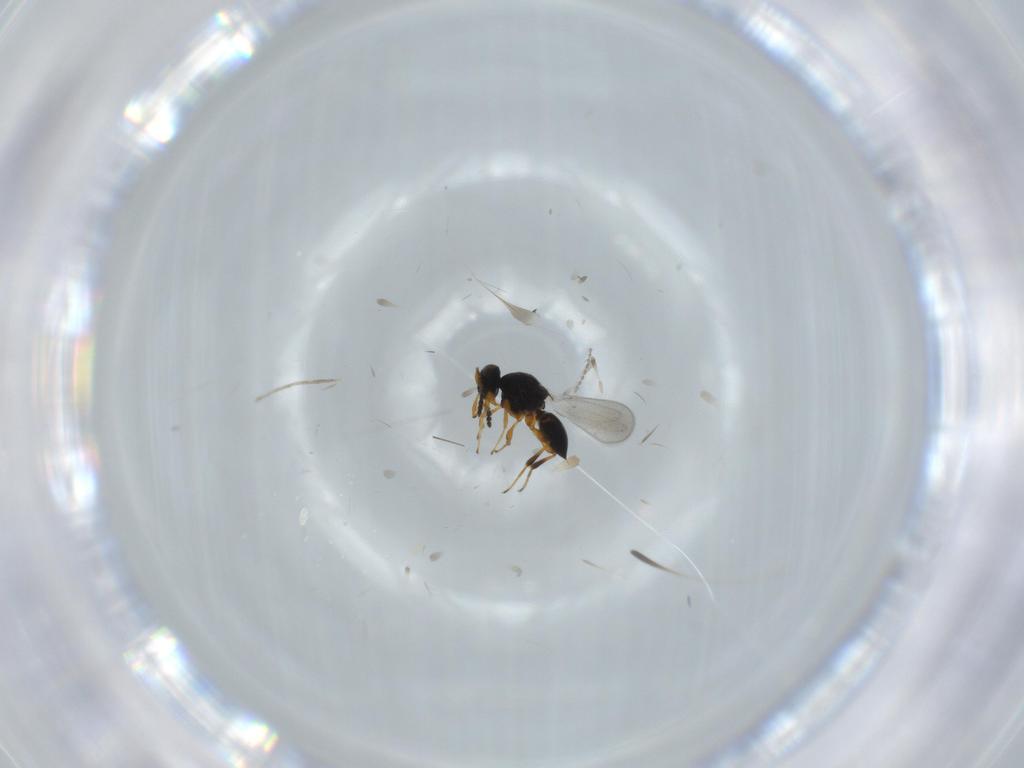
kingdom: Animalia
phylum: Arthropoda
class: Insecta
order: Hymenoptera
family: Platygastridae
